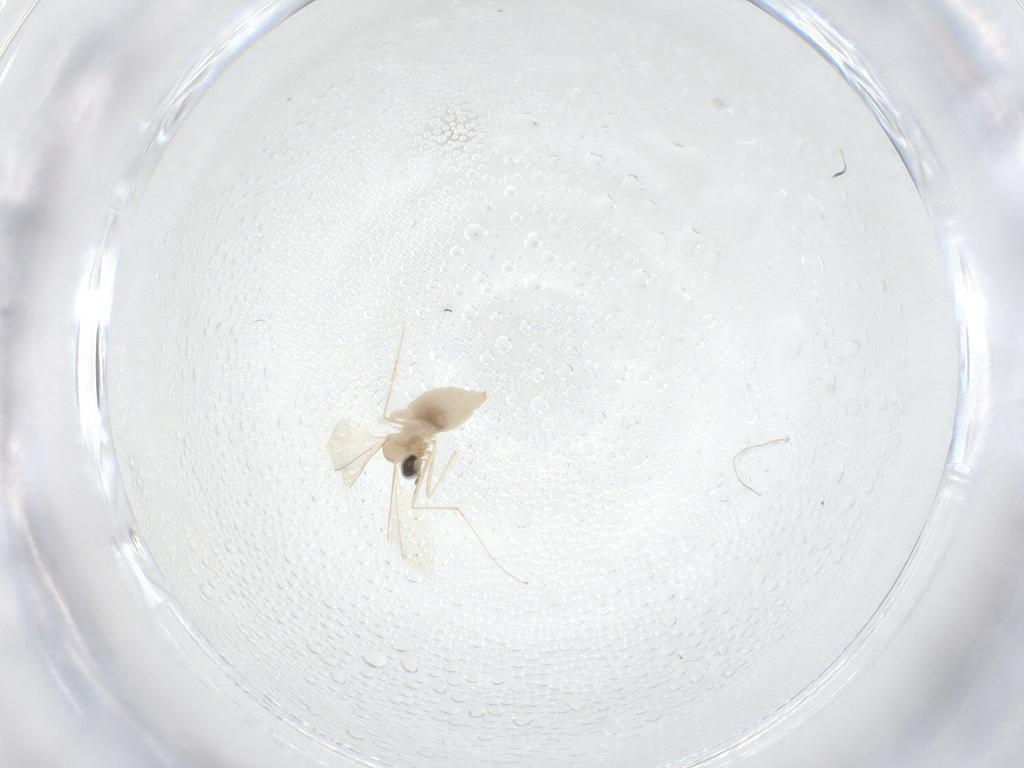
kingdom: Animalia
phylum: Arthropoda
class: Insecta
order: Diptera
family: Cecidomyiidae
